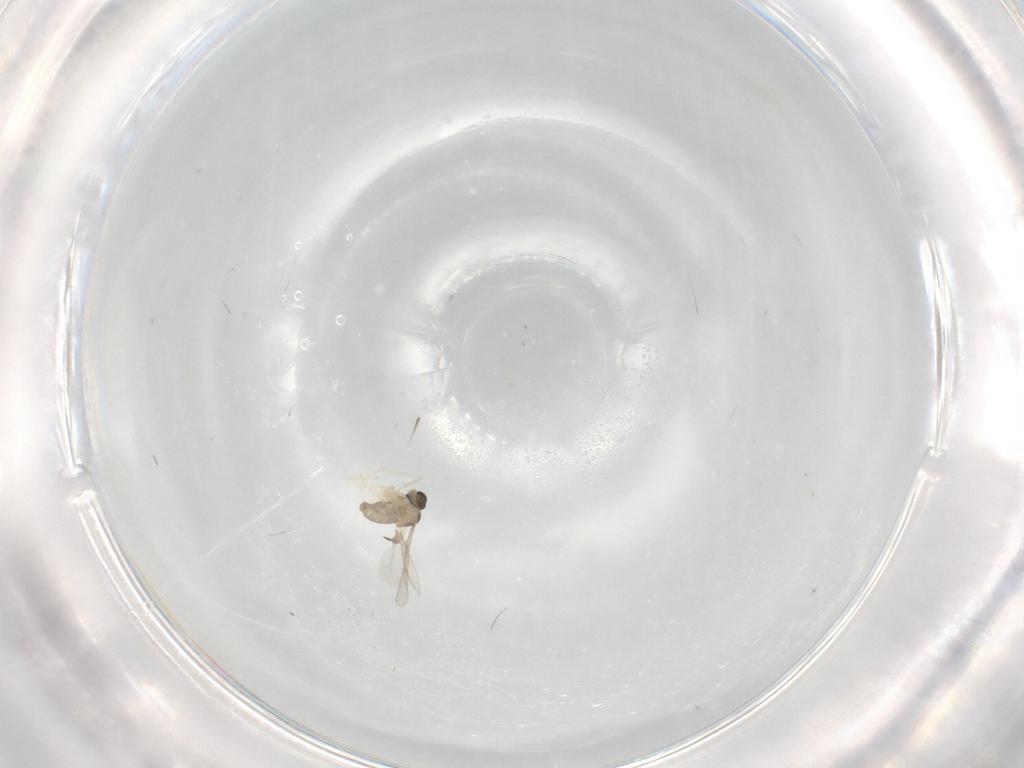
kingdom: Animalia
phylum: Arthropoda
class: Insecta
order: Diptera
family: Cecidomyiidae
